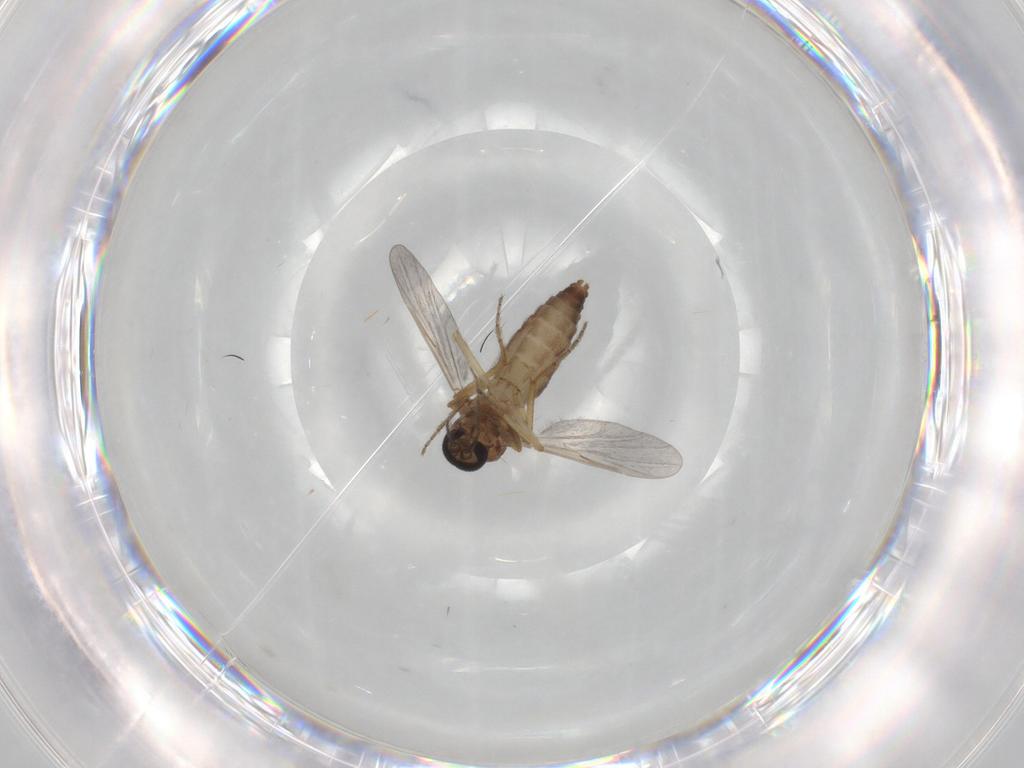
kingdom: Animalia
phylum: Arthropoda
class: Insecta
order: Diptera
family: Ceratopogonidae
